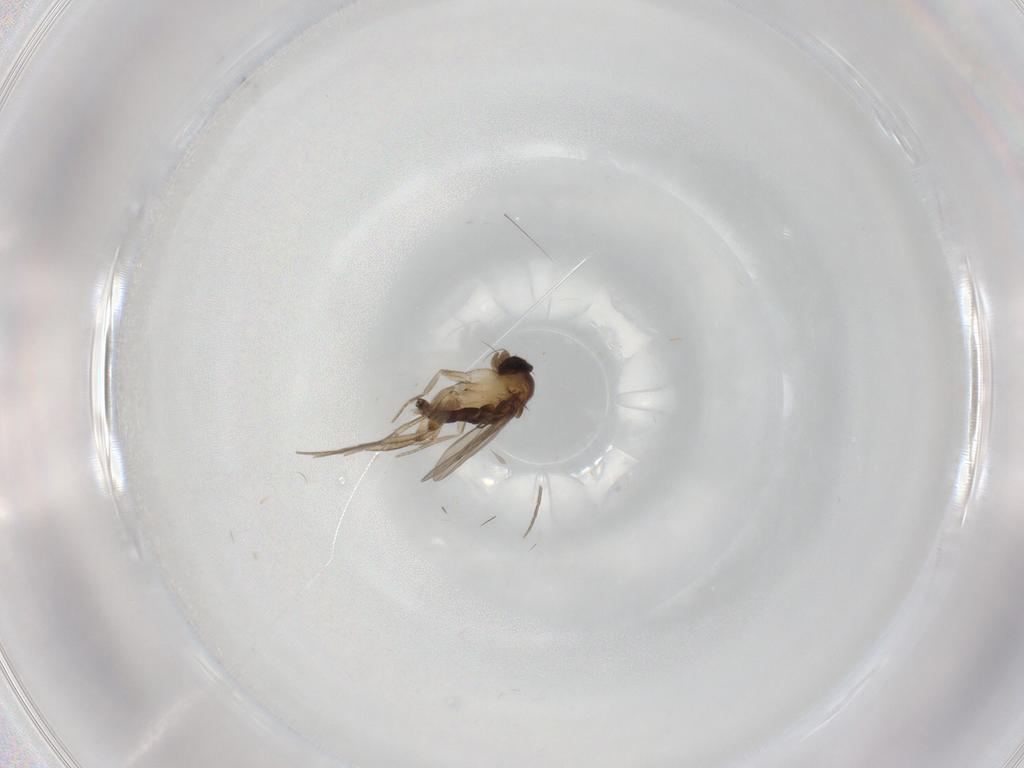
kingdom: Animalia
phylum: Arthropoda
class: Insecta
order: Diptera
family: Phoridae
